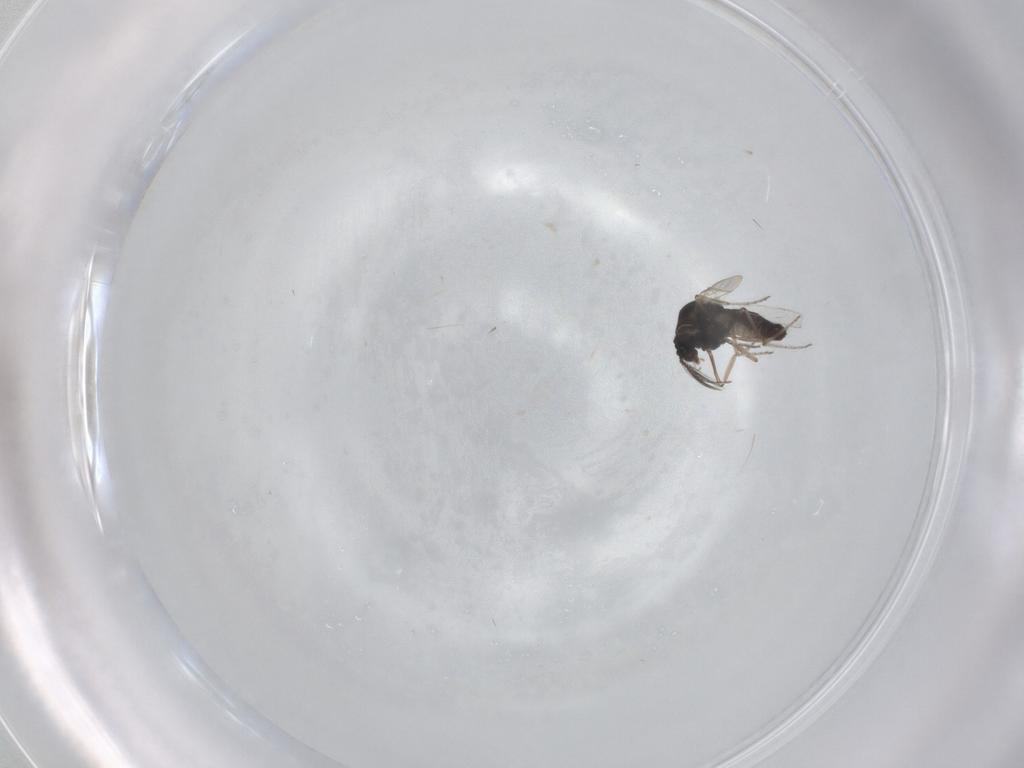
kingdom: Animalia
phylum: Arthropoda
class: Insecta
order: Diptera
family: Ceratopogonidae
